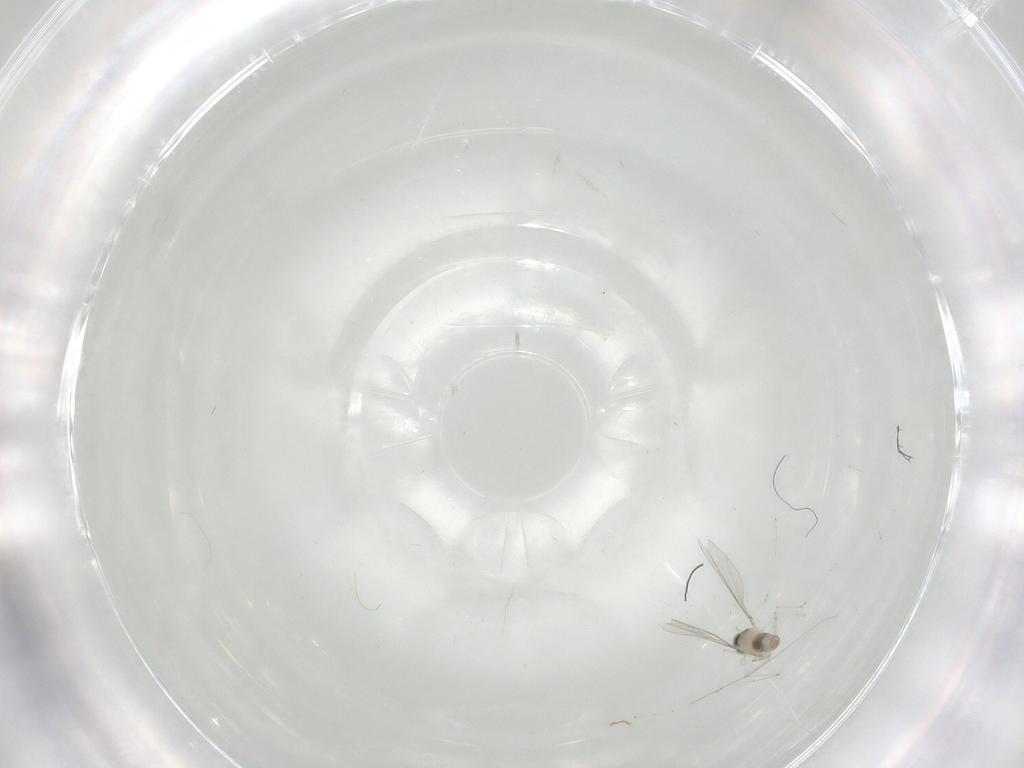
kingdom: Animalia
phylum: Arthropoda
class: Insecta
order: Diptera
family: Cecidomyiidae
